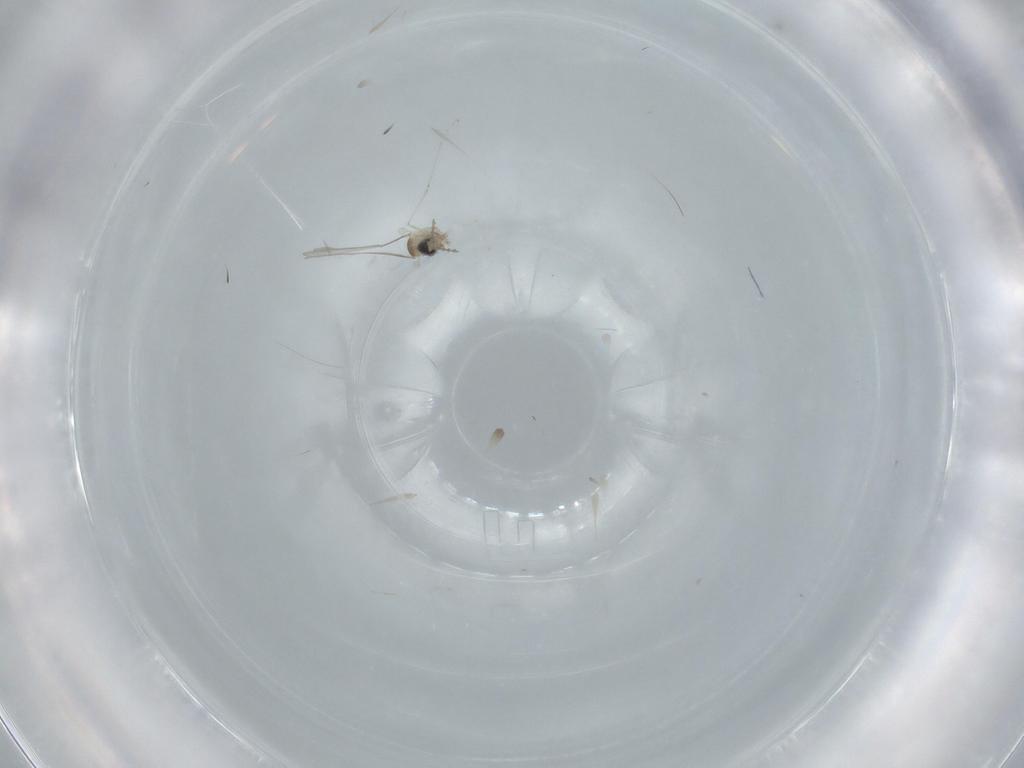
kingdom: Animalia
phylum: Arthropoda
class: Insecta
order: Diptera
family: Cecidomyiidae
